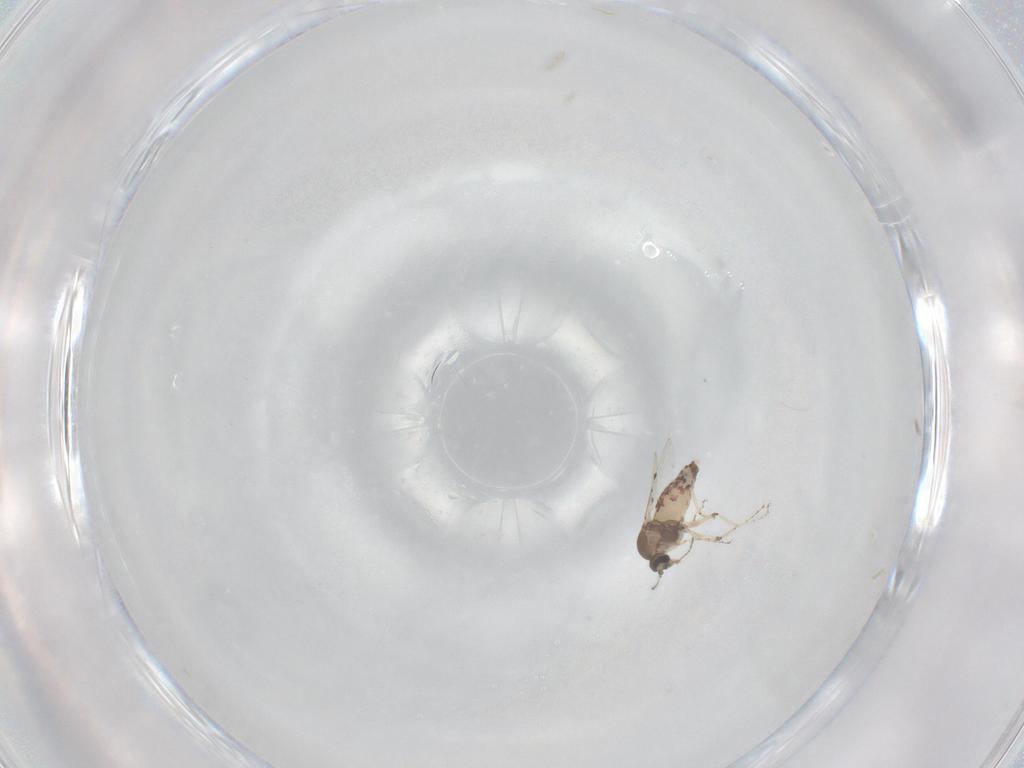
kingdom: Animalia
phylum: Arthropoda
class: Insecta
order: Diptera
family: Ceratopogonidae
